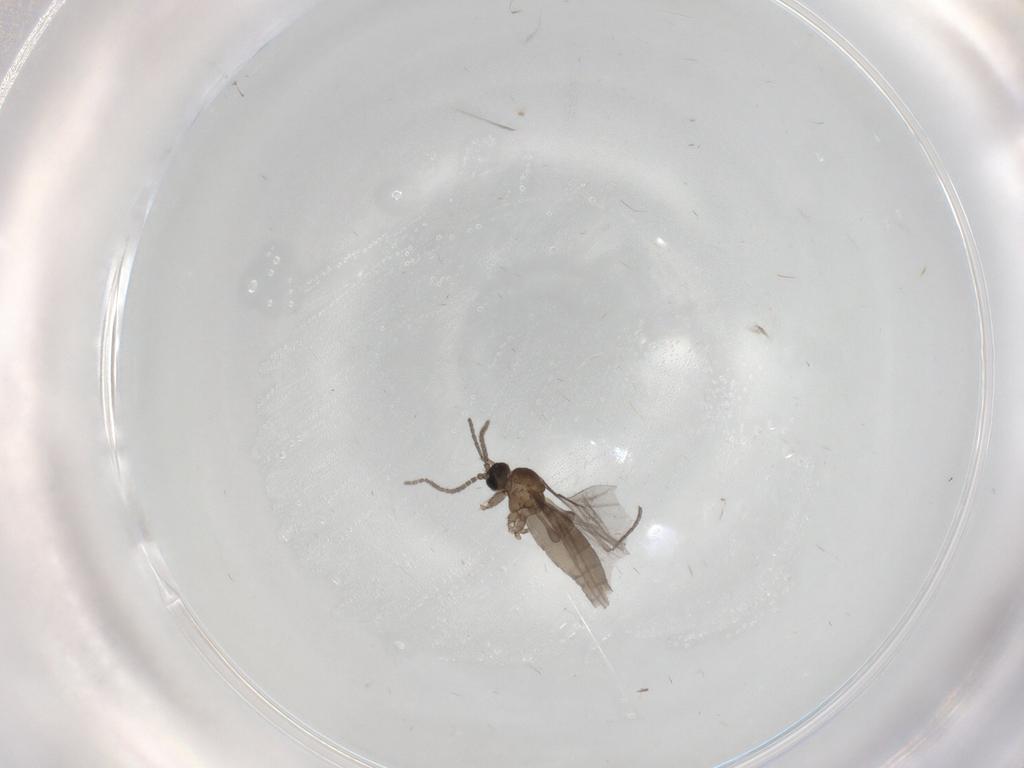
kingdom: Animalia
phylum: Arthropoda
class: Insecta
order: Diptera
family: Sciaridae
